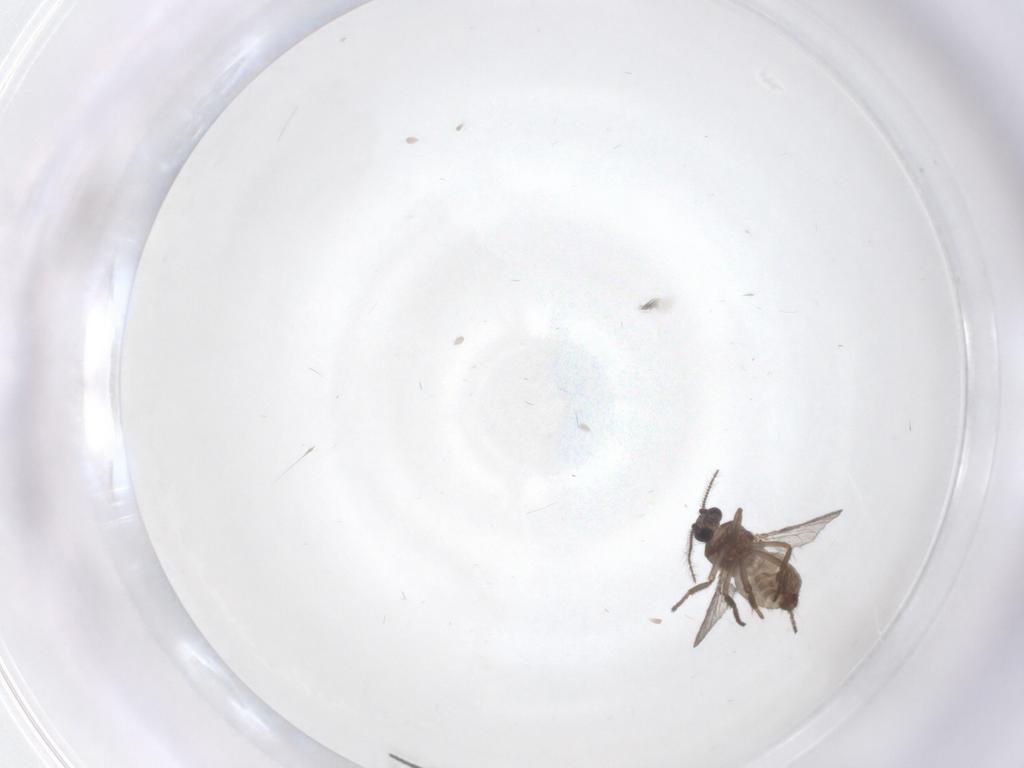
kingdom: Animalia
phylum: Arthropoda
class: Insecta
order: Diptera
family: Ceratopogonidae
